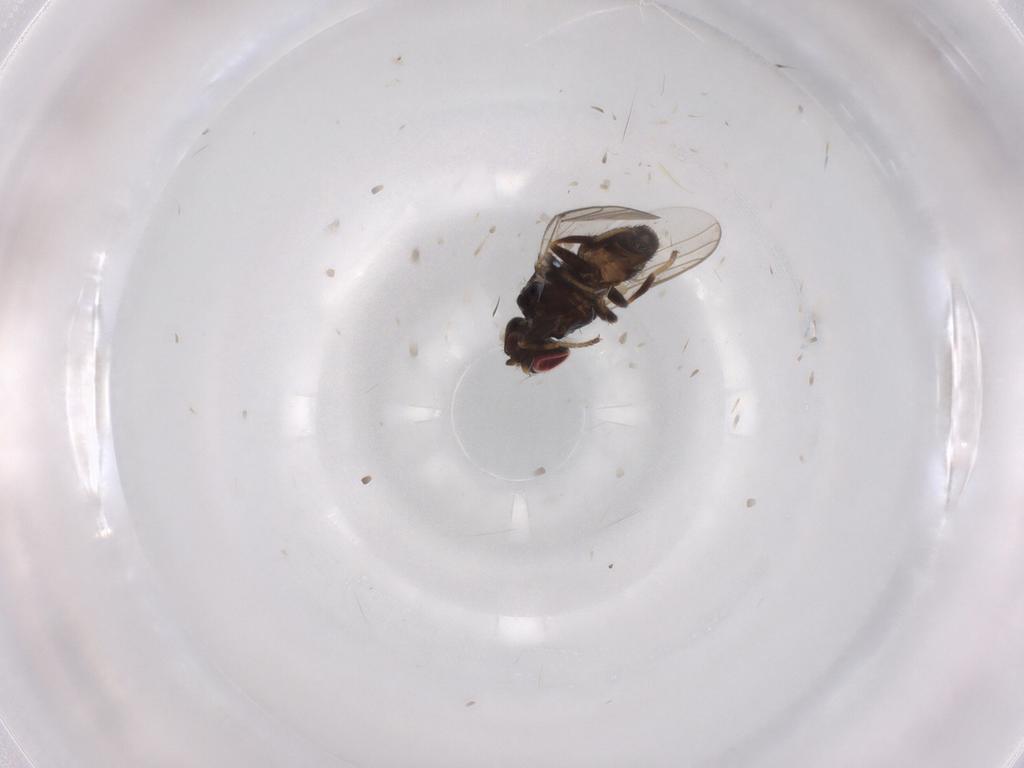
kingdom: Animalia
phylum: Arthropoda
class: Insecta
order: Diptera
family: Chloropidae
